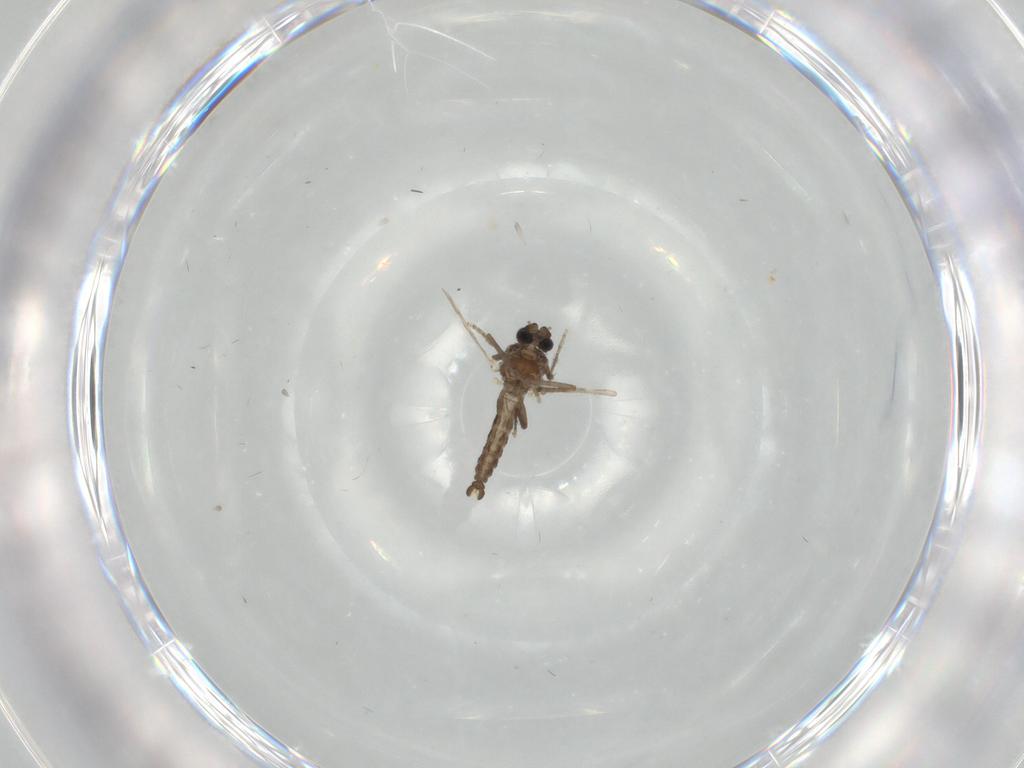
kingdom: Animalia
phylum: Arthropoda
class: Insecta
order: Diptera
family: Ceratopogonidae
